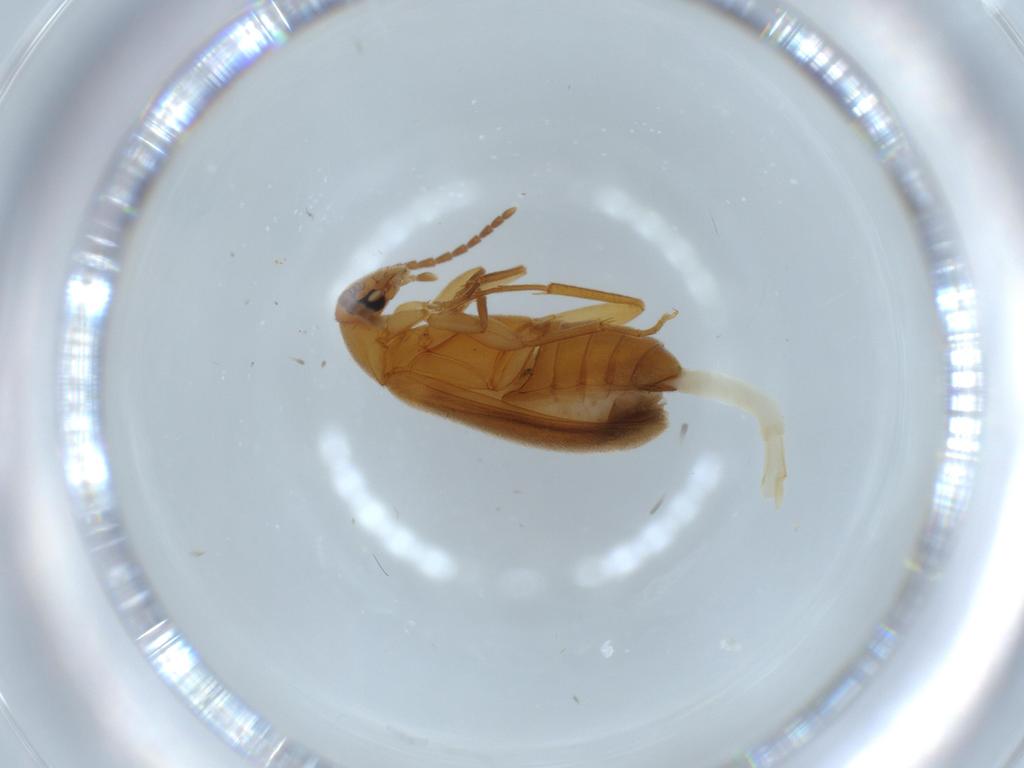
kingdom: Animalia
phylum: Arthropoda
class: Insecta
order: Coleoptera
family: Scraptiidae
